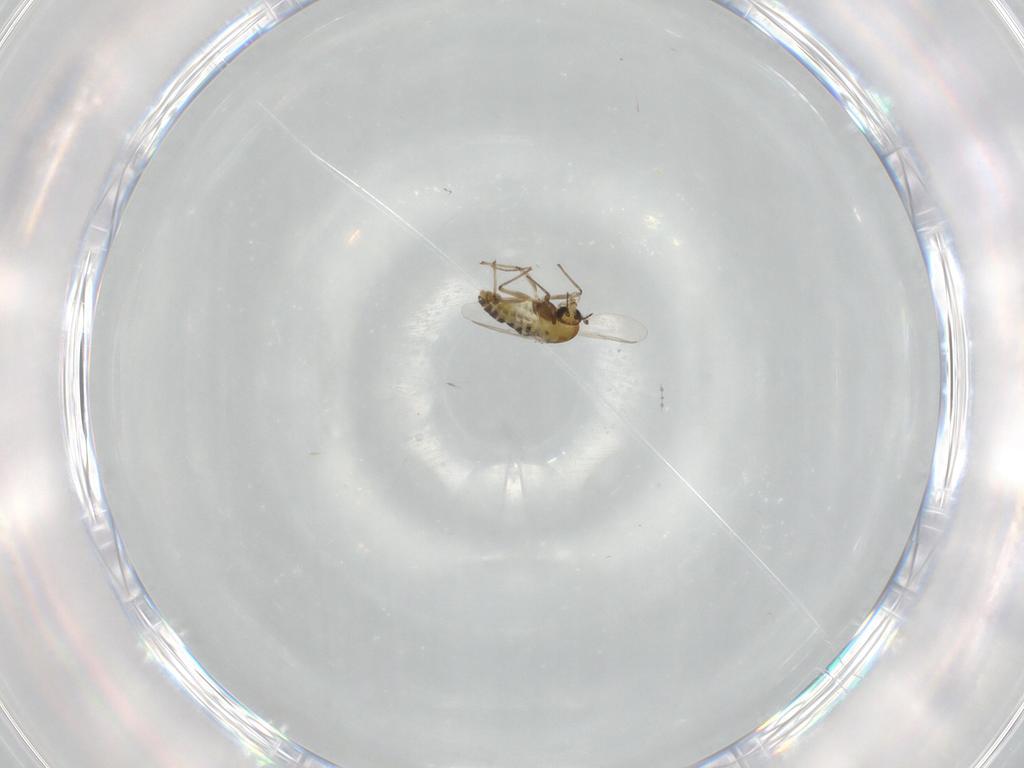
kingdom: Animalia
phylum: Arthropoda
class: Insecta
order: Diptera
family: Chironomidae
